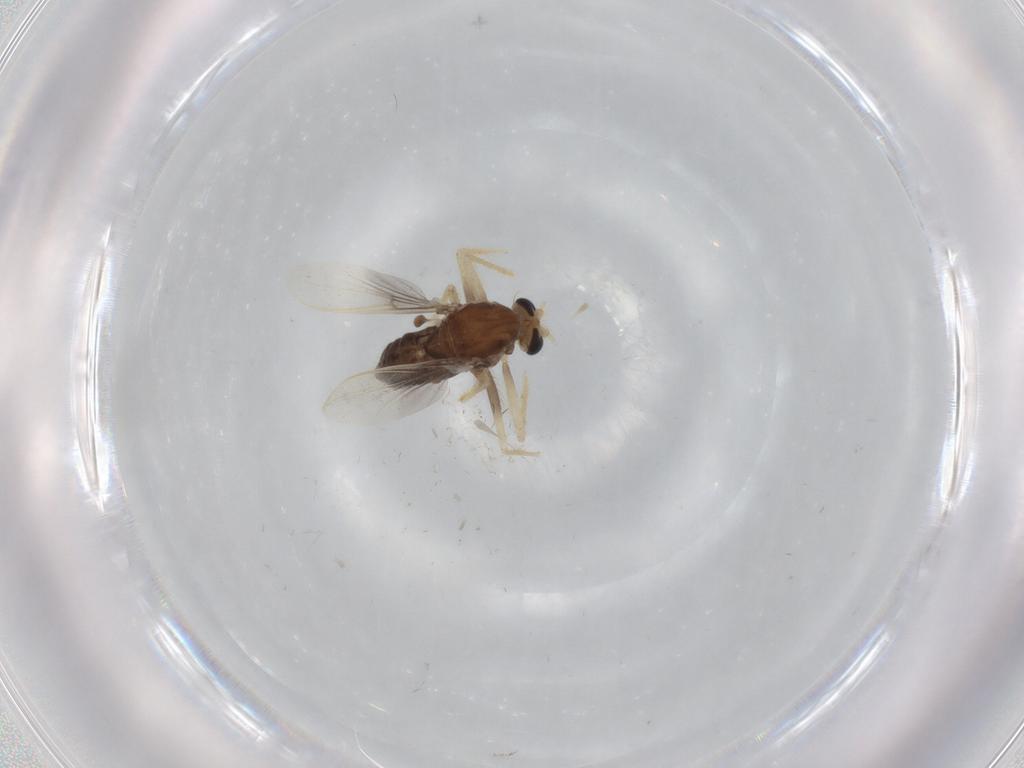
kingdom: Animalia
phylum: Arthropoda
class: Insecta
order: Diptera
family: Chironomidae
